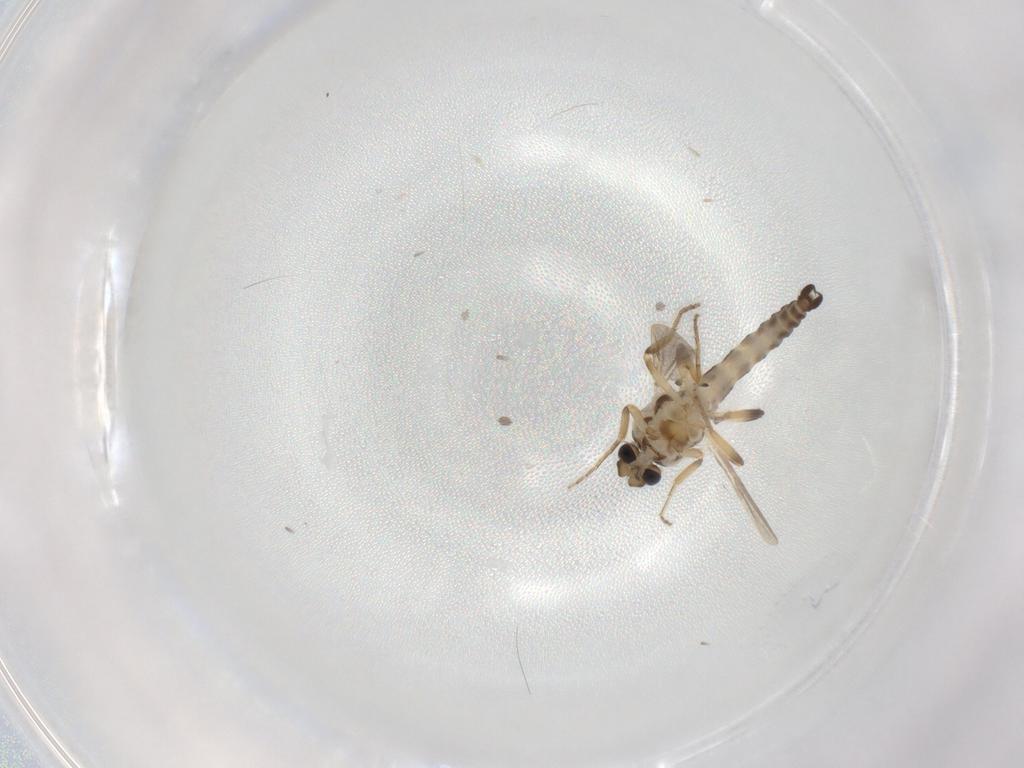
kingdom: Animalia
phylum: Arthropoda
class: Insecta
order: Diptera
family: Ceratopogonidae
